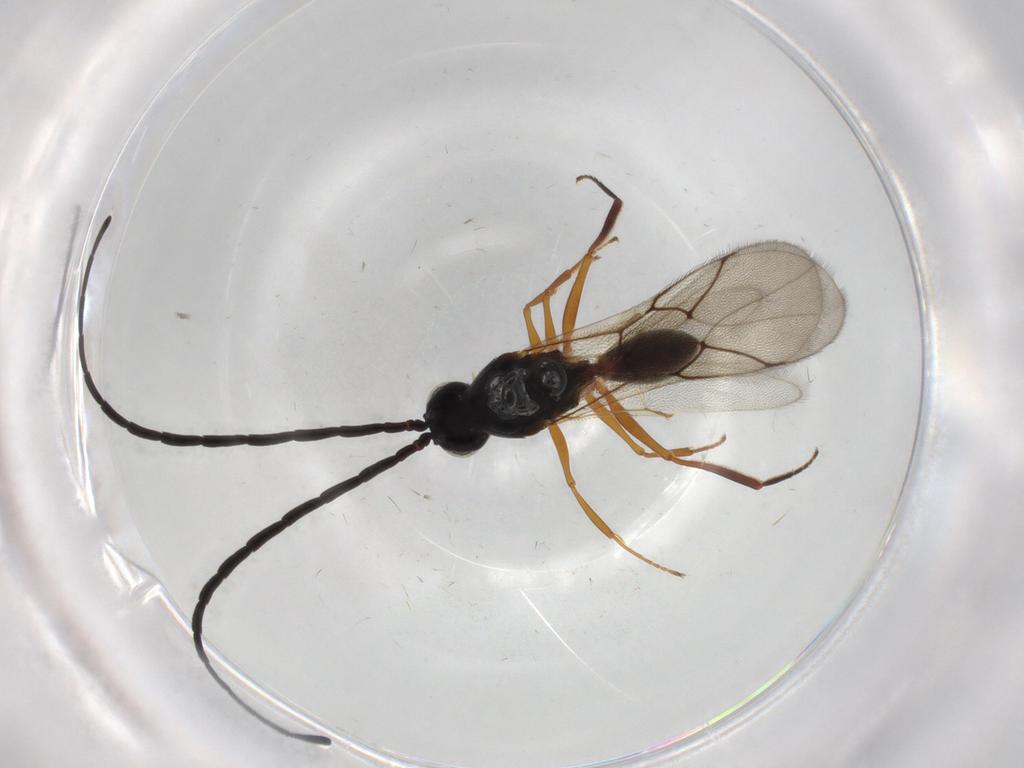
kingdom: Animalia
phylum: Arthropoda
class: Insecta
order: Hymenoptera
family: Figitidae
